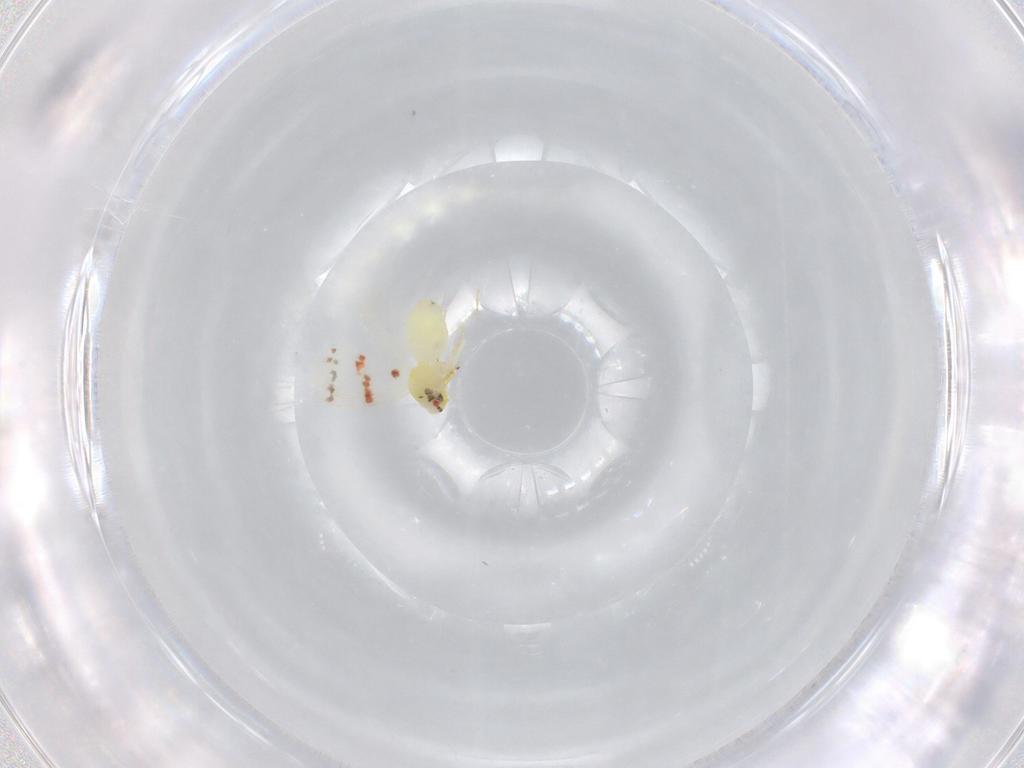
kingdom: Animalia
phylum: Arthropoda
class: Insecta
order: Hemiptera
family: Aleyrodidae
